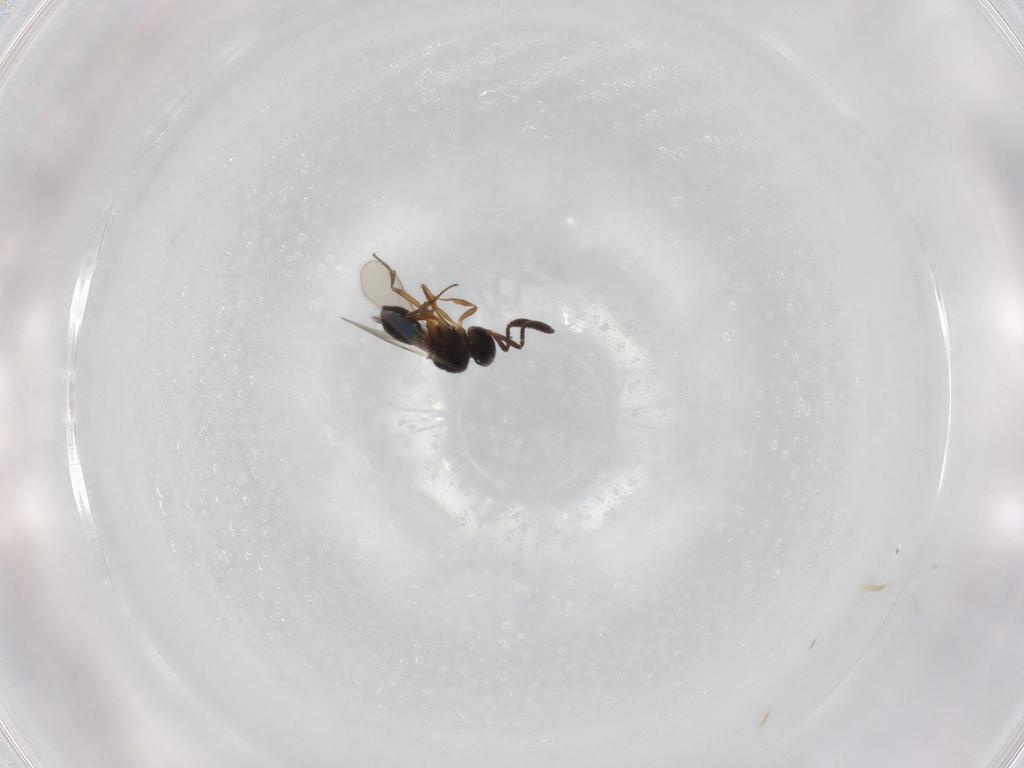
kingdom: Animalia
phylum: Arthropoda
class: Insecta
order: Hymenoptera
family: Scelionidae
